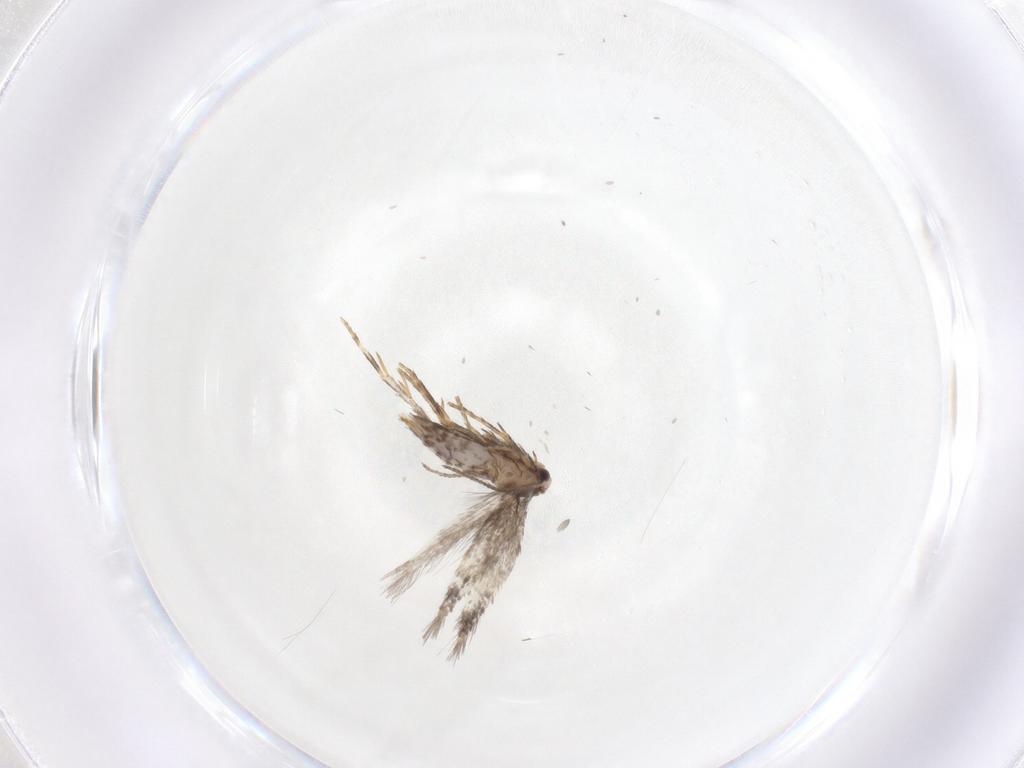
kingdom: Animalia
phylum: Arthropoda
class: Insecta
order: Lepidoptera
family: Nepticulidae
